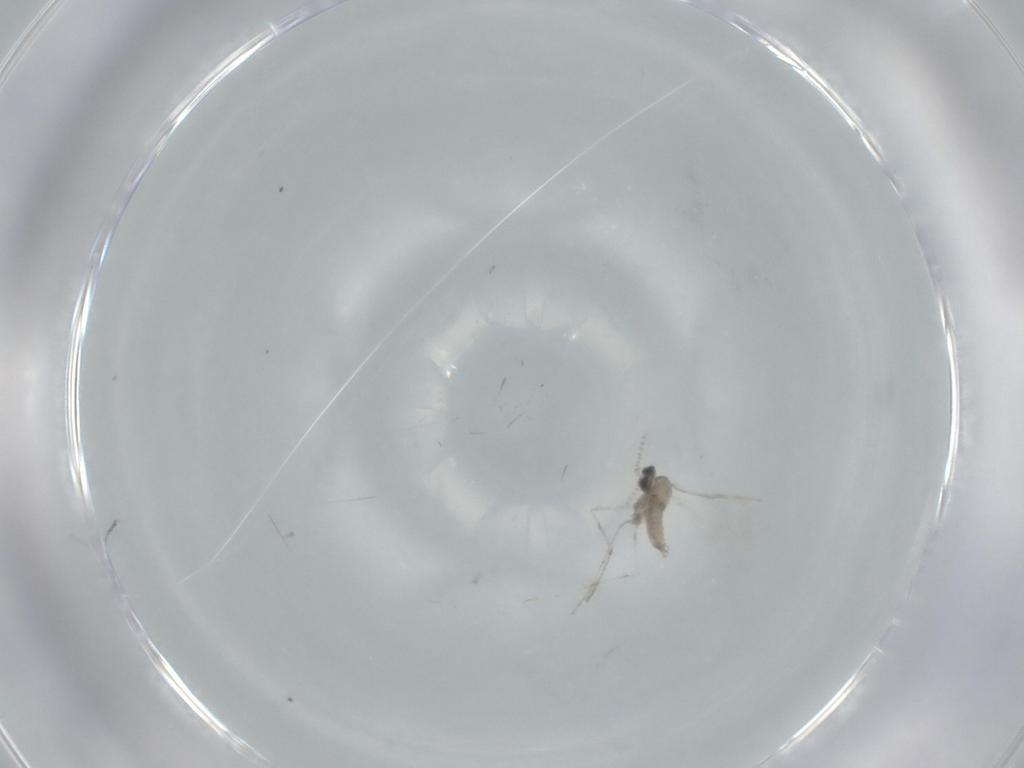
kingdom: Animalia
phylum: Arthropoda
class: Insecta
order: Diptera
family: Cecidomyiidae
